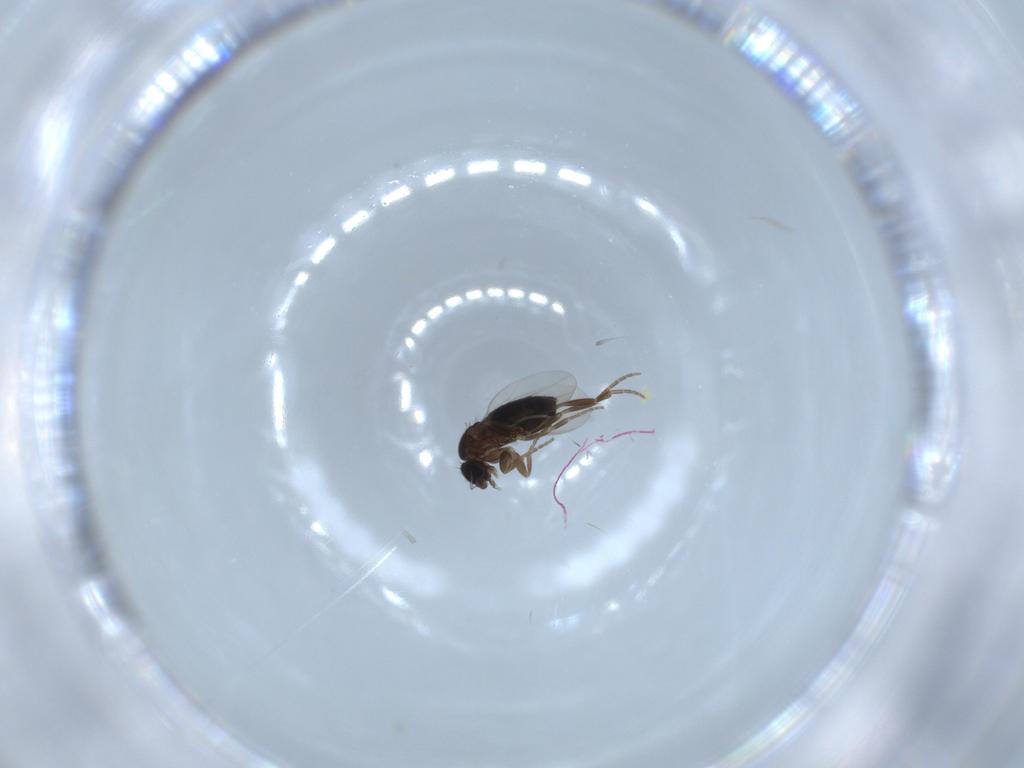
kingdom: Animalia
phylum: Arthropoda
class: Insecta
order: Diptera
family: Phoridae
